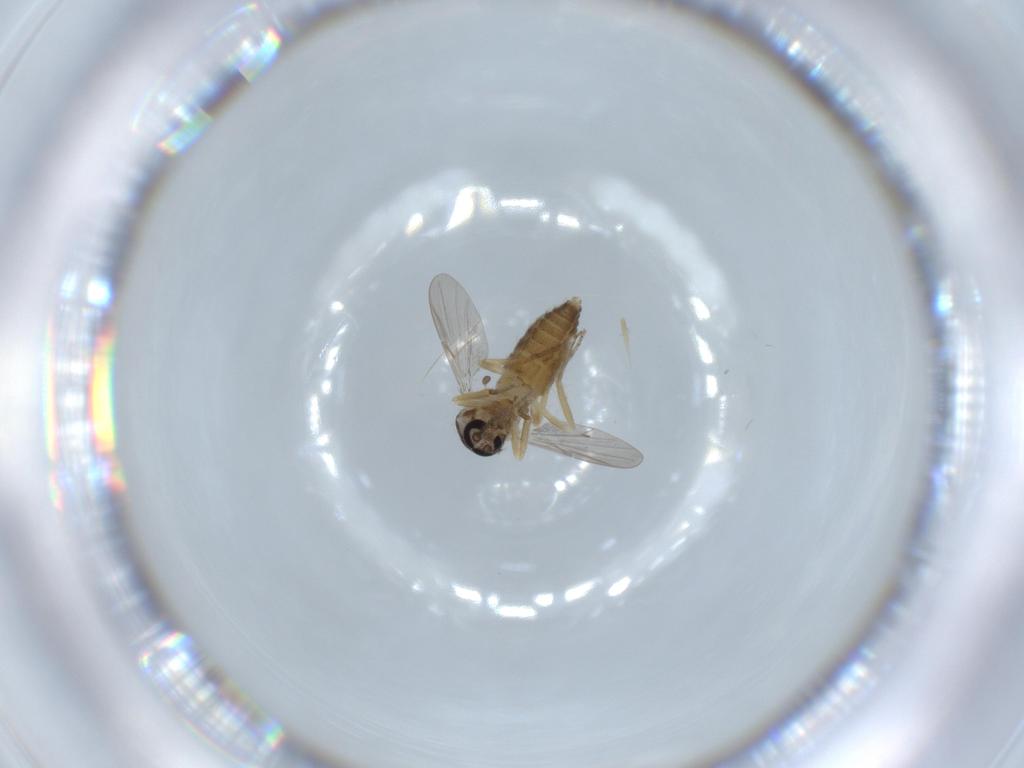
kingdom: Animalia
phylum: Arthropoda
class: Insecta
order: Diptera
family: Ceratopogonidae
